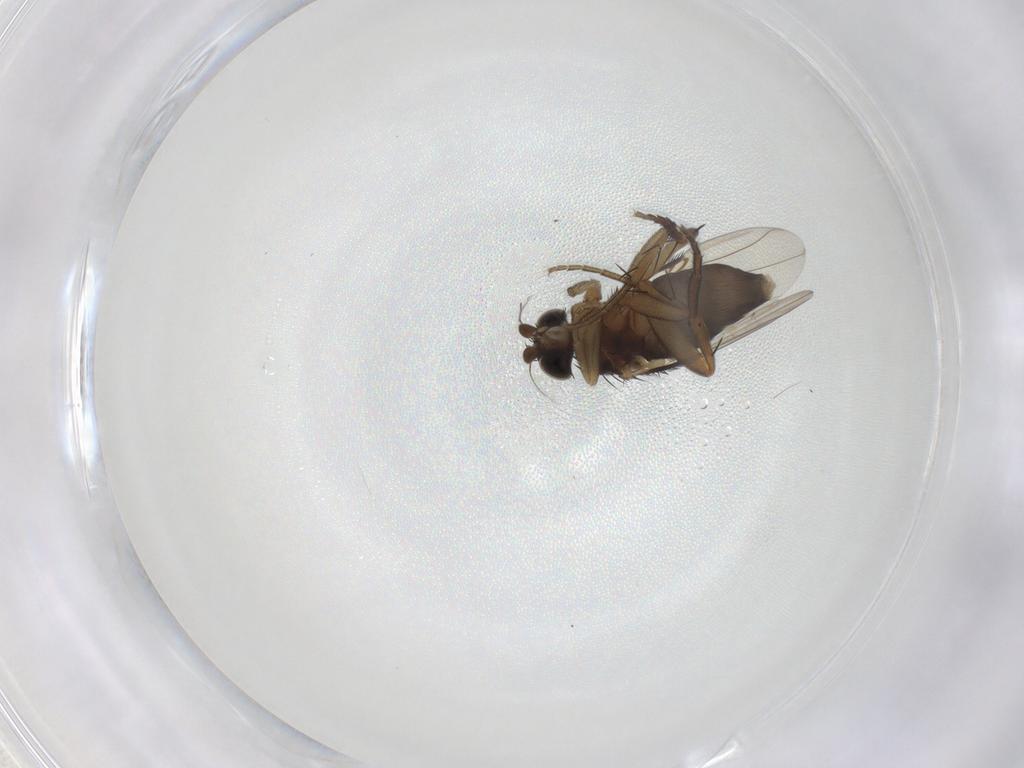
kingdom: Animalia
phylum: Arthropoda
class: Insecta
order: Diptera
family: Phoridae
